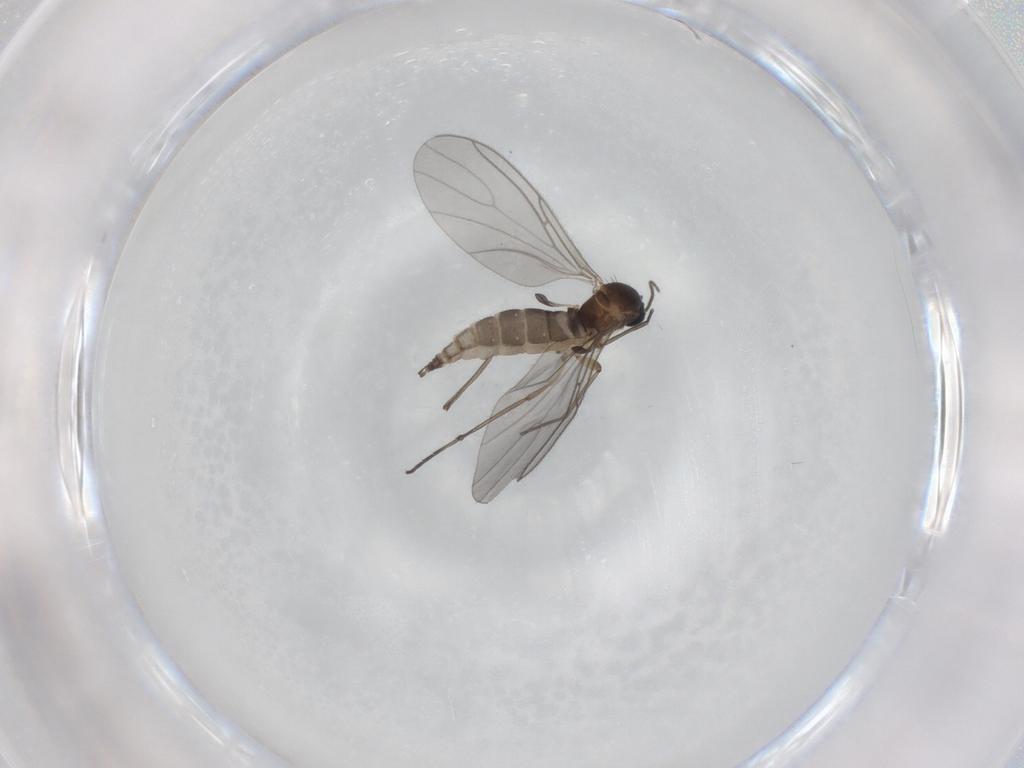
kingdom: Animalia
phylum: Arthropoda
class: Insecta
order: Diptera
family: Sciaridae
